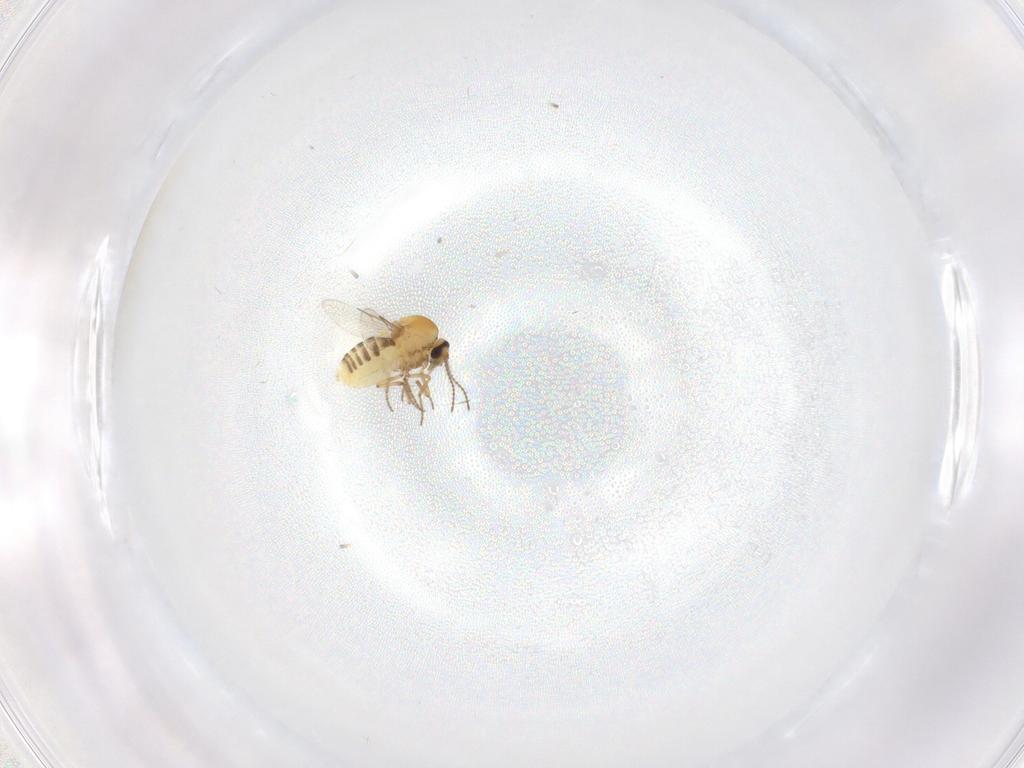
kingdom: Animalia
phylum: Arthropoda
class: Insecta
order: Diptera
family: Ceratopogonidae
